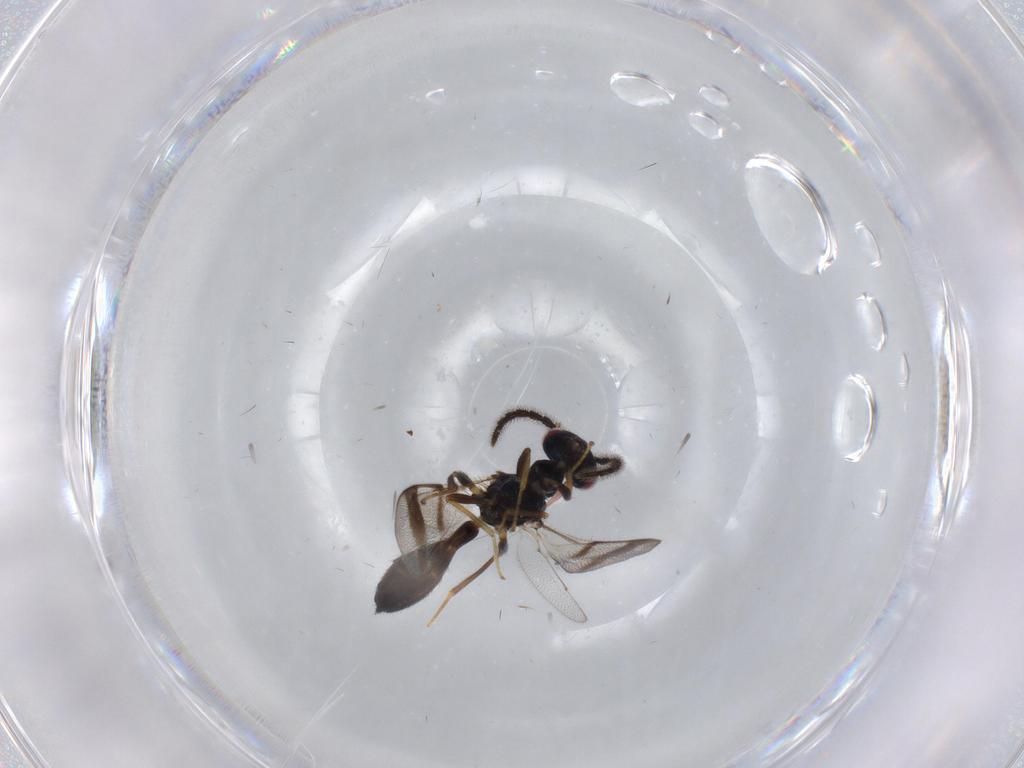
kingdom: Animalia
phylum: Arthropoda
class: Insecta
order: Hymenoptera
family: Pteromalidae
